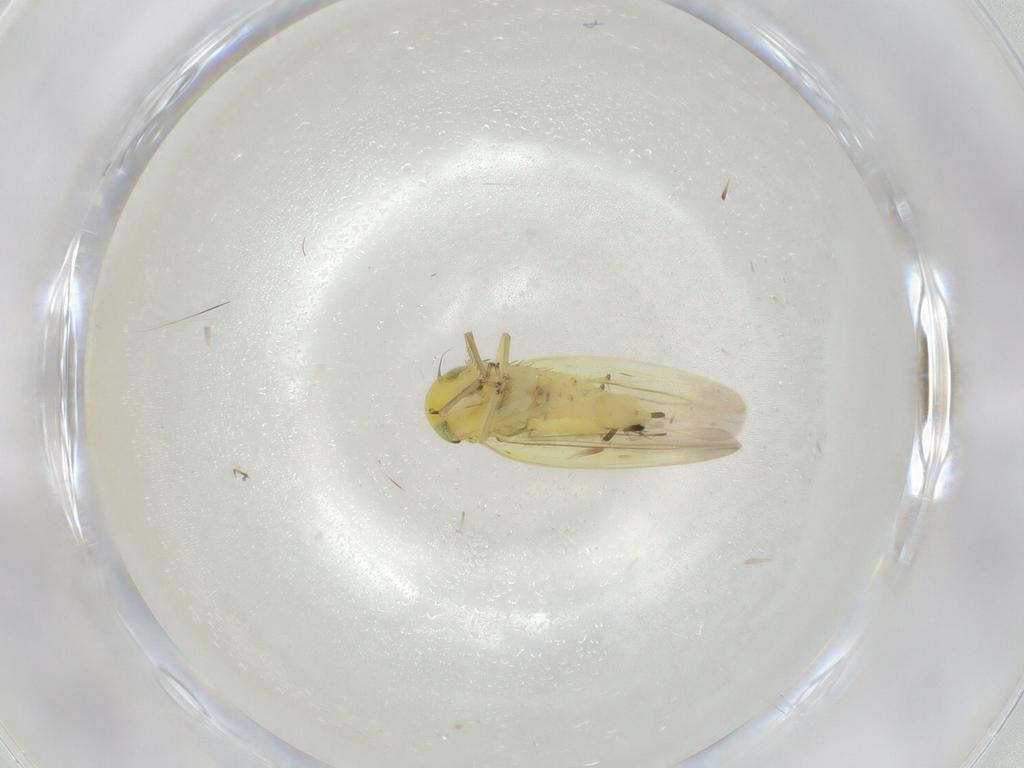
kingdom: Animalia
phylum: Arthropoda
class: Insecta
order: Hemiptera
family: Cicadellidae
